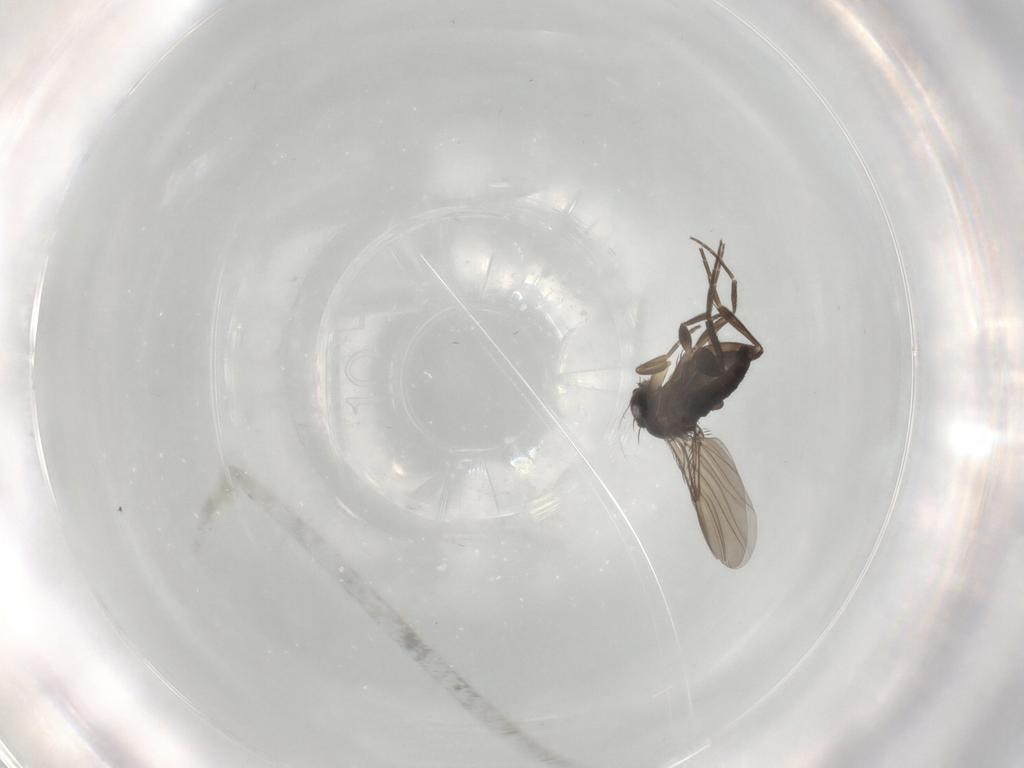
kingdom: Animalia
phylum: Arthropoda
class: Insecta
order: Diptera
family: Phoridae
